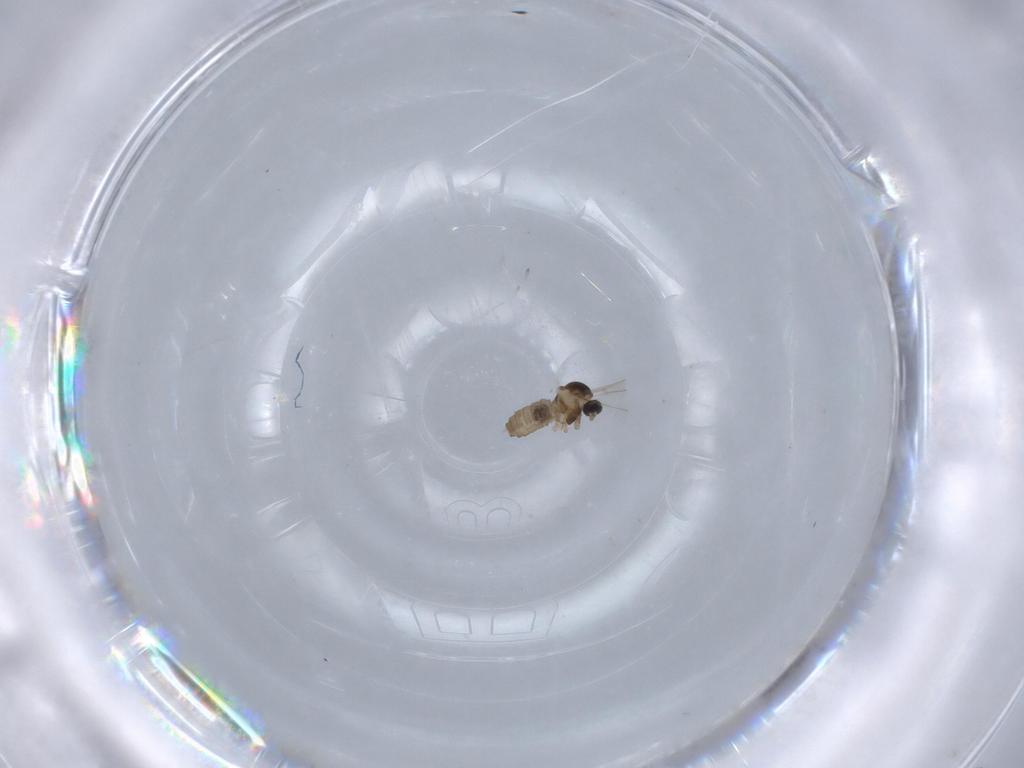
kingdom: Animalia
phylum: Arthropoda
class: Insecta
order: Diptera
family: Cecidomyiidae
